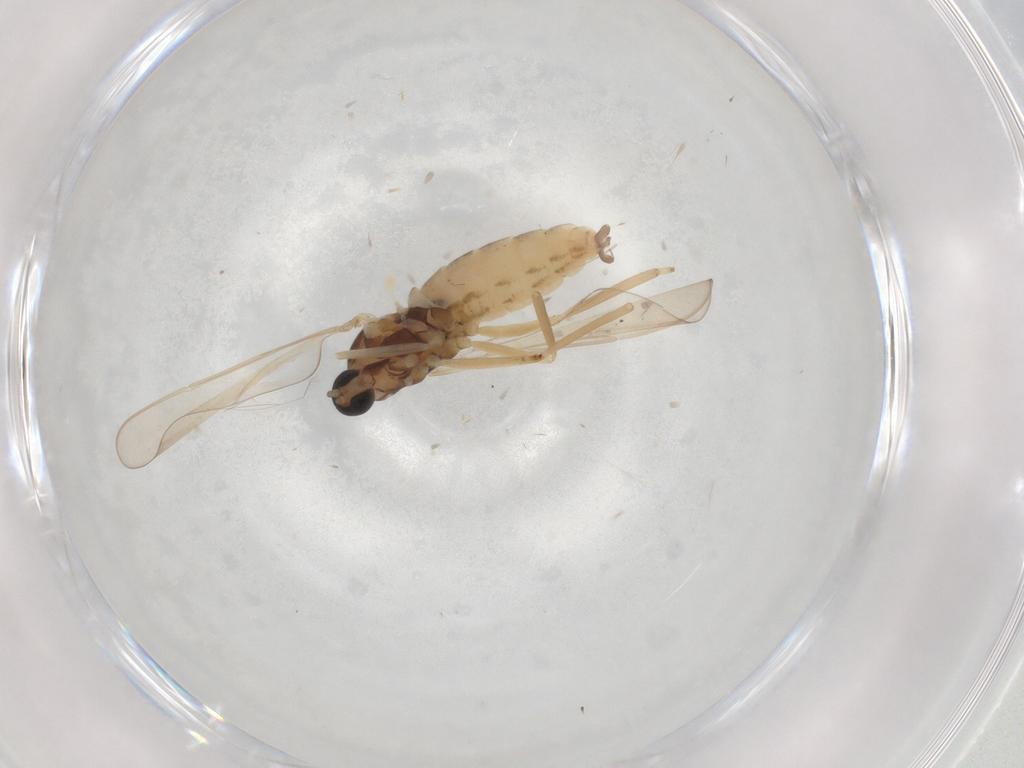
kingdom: Animalia
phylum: Arthropoda
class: Insecta
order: Diptera
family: Cecidomyiidae
